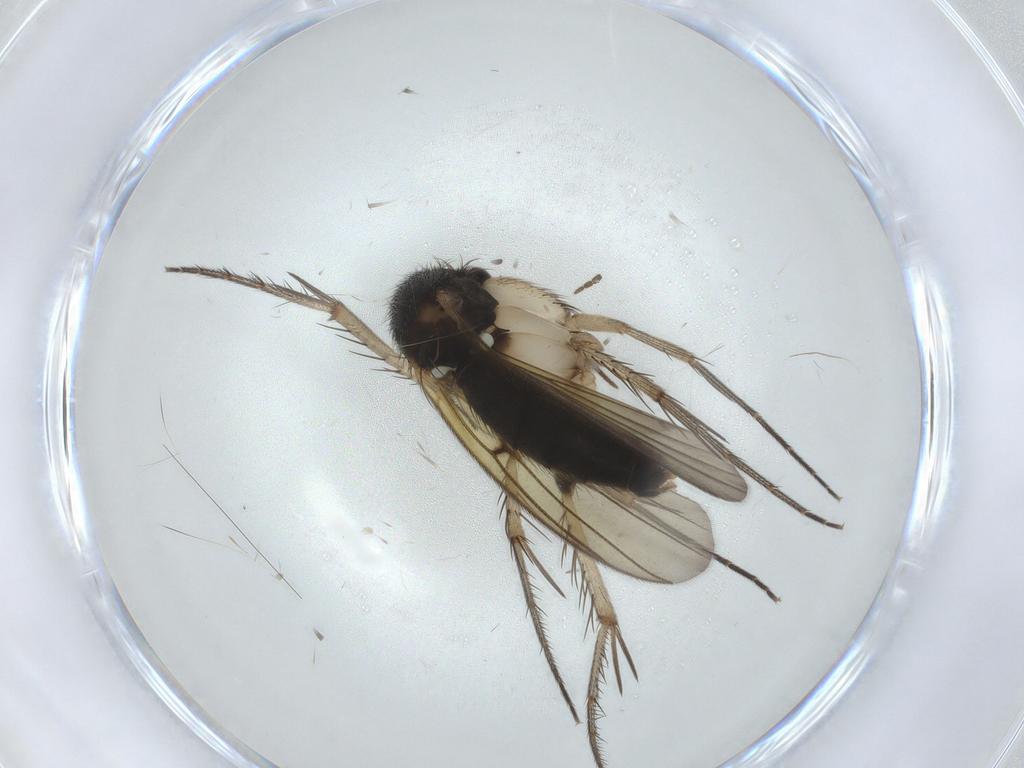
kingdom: Animalia
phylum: Arthropoda
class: Insecta
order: Diptera
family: Chironomidae
